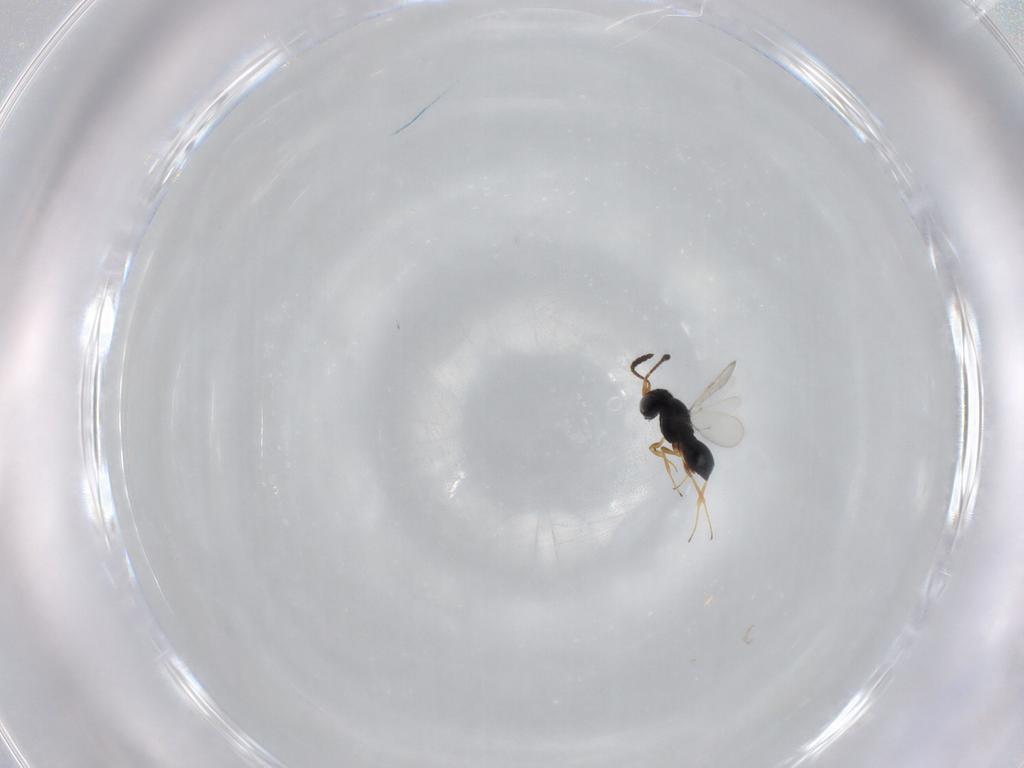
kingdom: Animalia
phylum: Arthropoda
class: Insecta
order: Hymenoptera
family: Scelionidae
